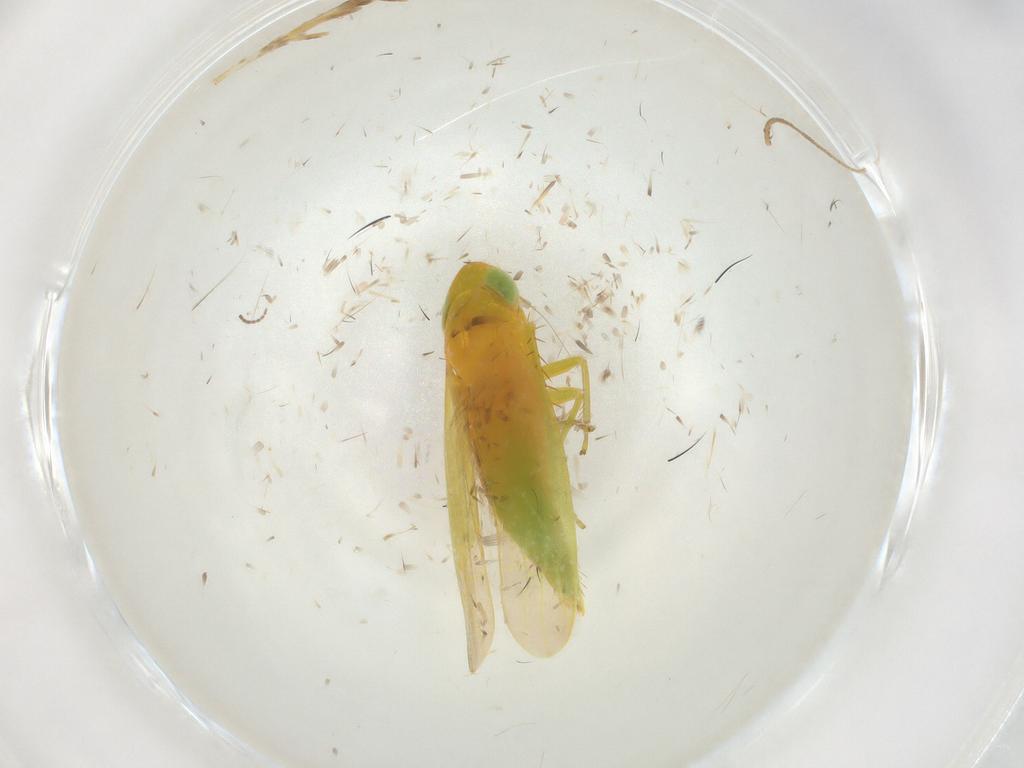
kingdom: Animalia
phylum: Arthropoda
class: Insecta
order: Hemiptera
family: Cicadellidae
